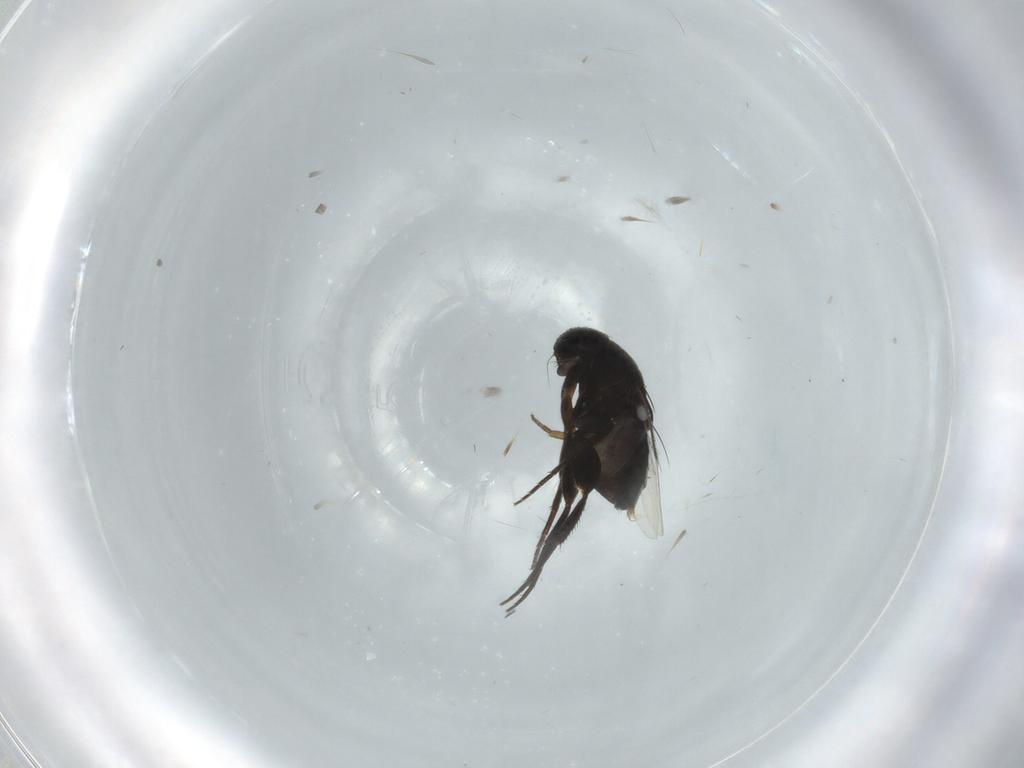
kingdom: Animalia
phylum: Arthropoda
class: Insecta
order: Diptera
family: Phoridae
